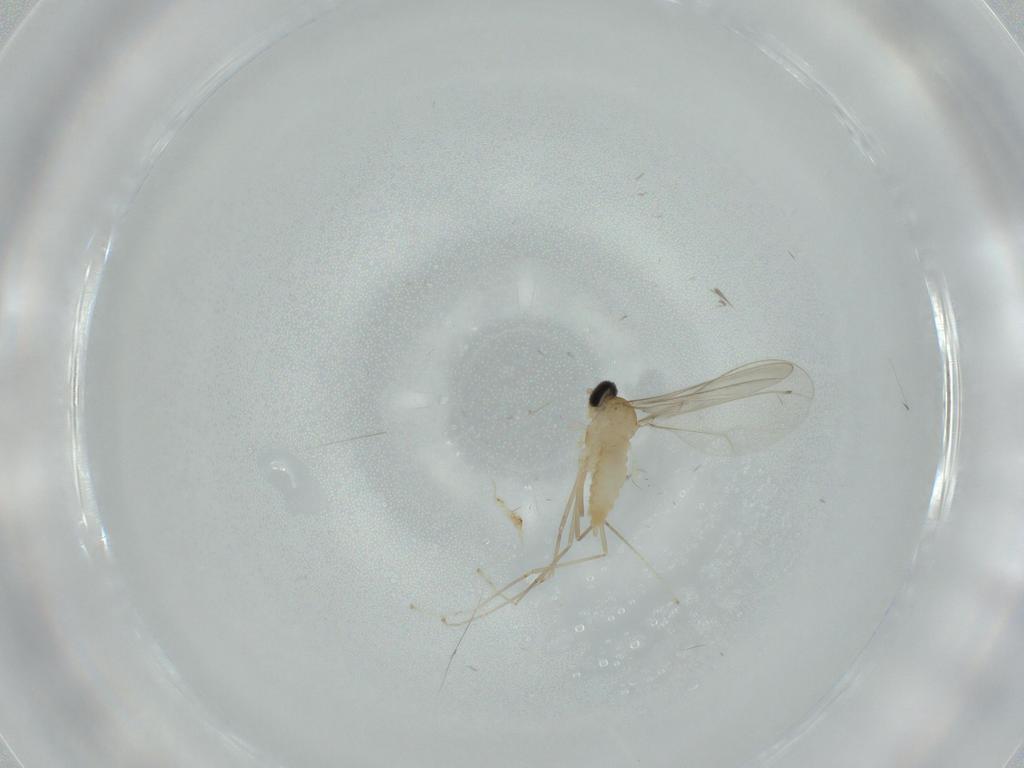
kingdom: Animalia
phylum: Arthropoda
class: Insecta
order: Diptera
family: Cecidomyiidae
